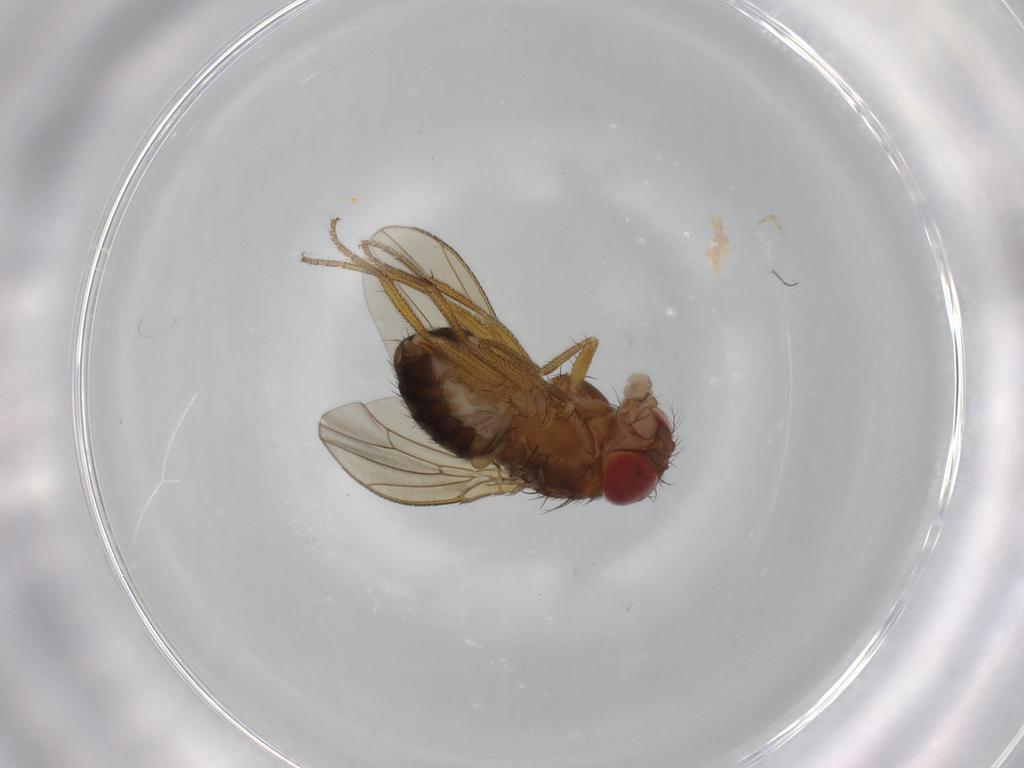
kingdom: Animalia
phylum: Arthropoda
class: Insecta
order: Diptera
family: Drosophilidae
